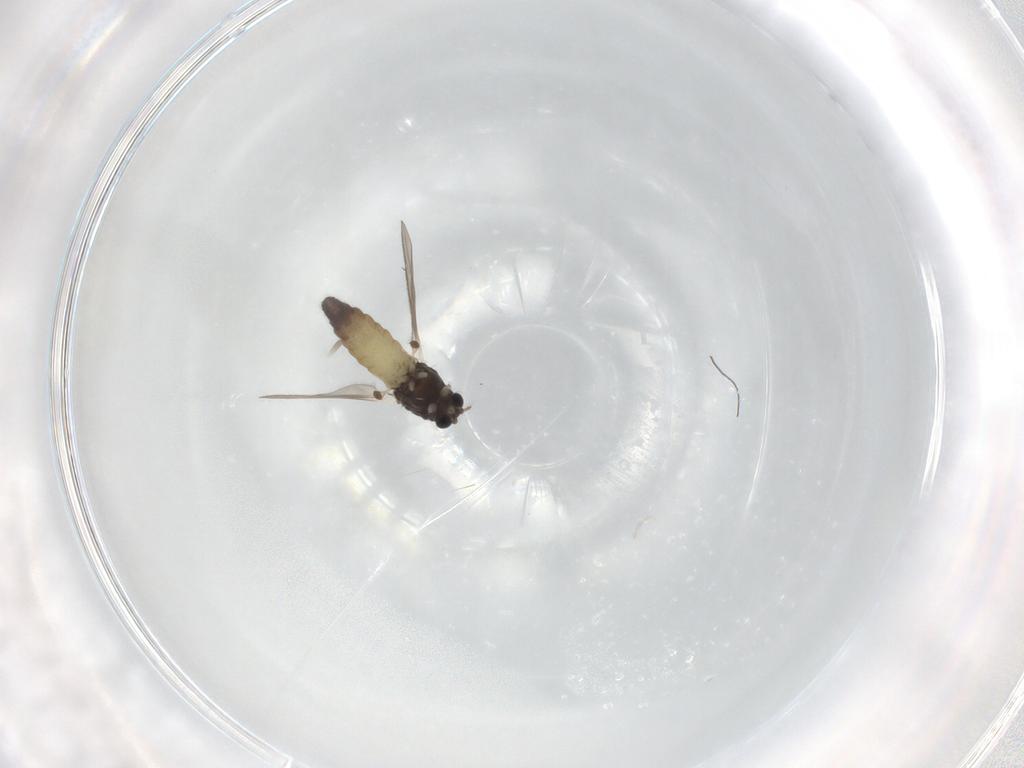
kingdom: Animalia
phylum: Arthropoda
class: Insecta
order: Diptera
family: Chironomidae
